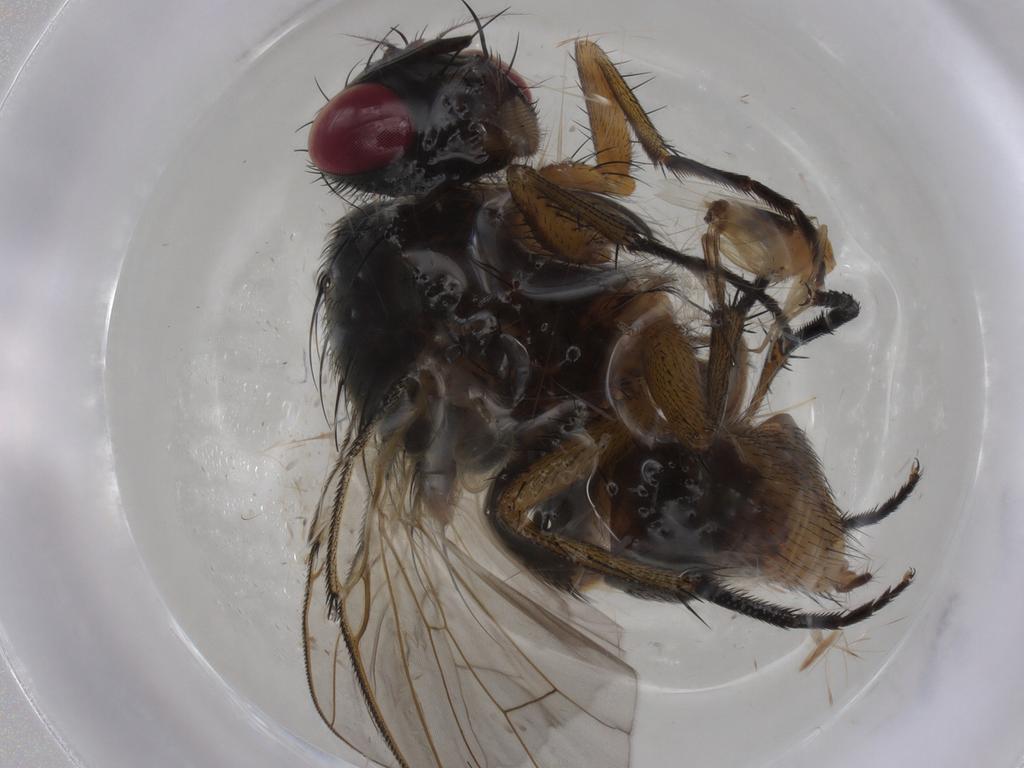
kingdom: Animalia
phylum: Arthropoda
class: Insecta
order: Diptera
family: Muscidae
